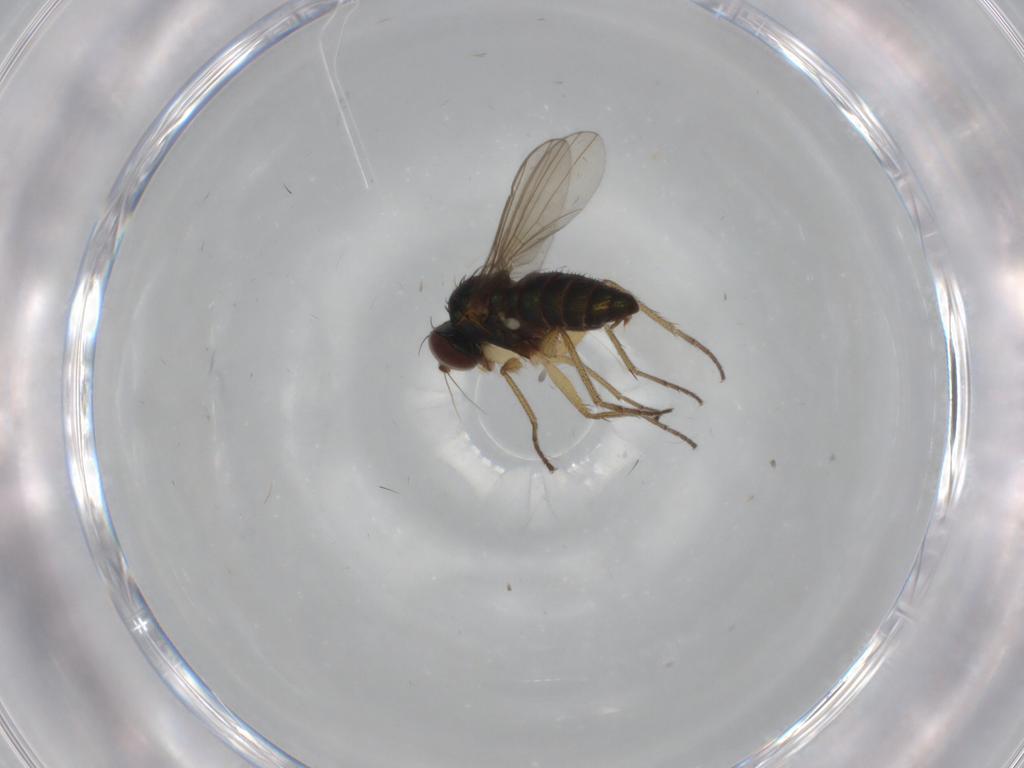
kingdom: Animalia
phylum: Arthropoda
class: Insecta
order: Diptera
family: Dolichopodidae
